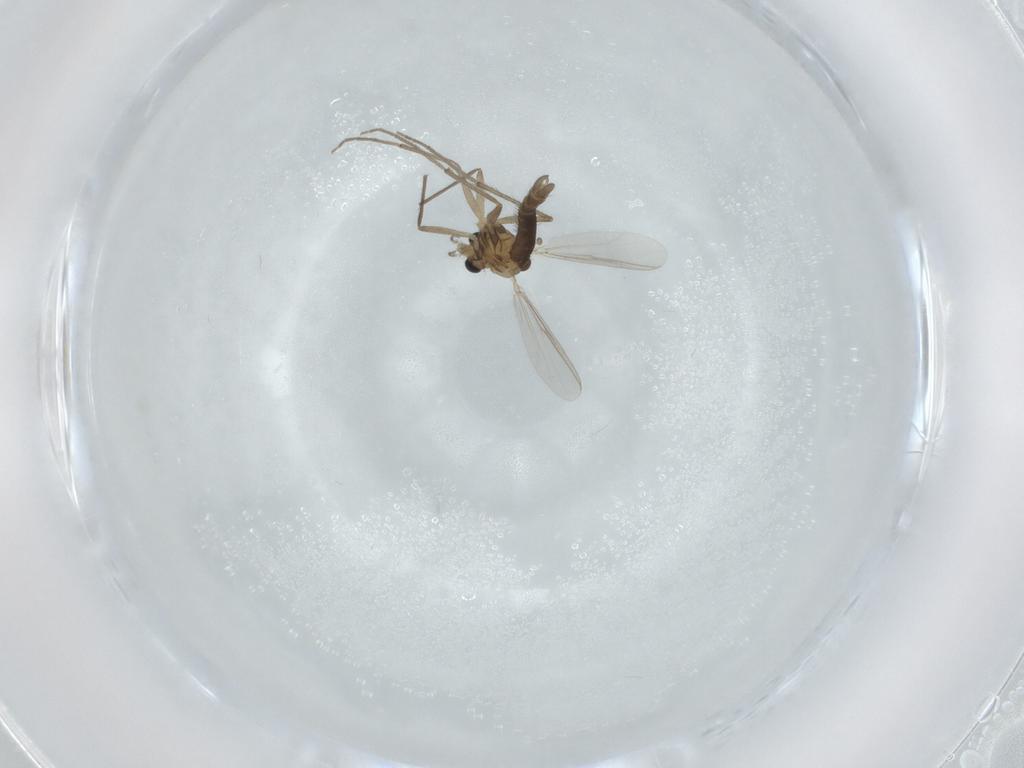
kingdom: Animalia
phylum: Arthropoda
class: Insecta
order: Diptera
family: Chironomidae
